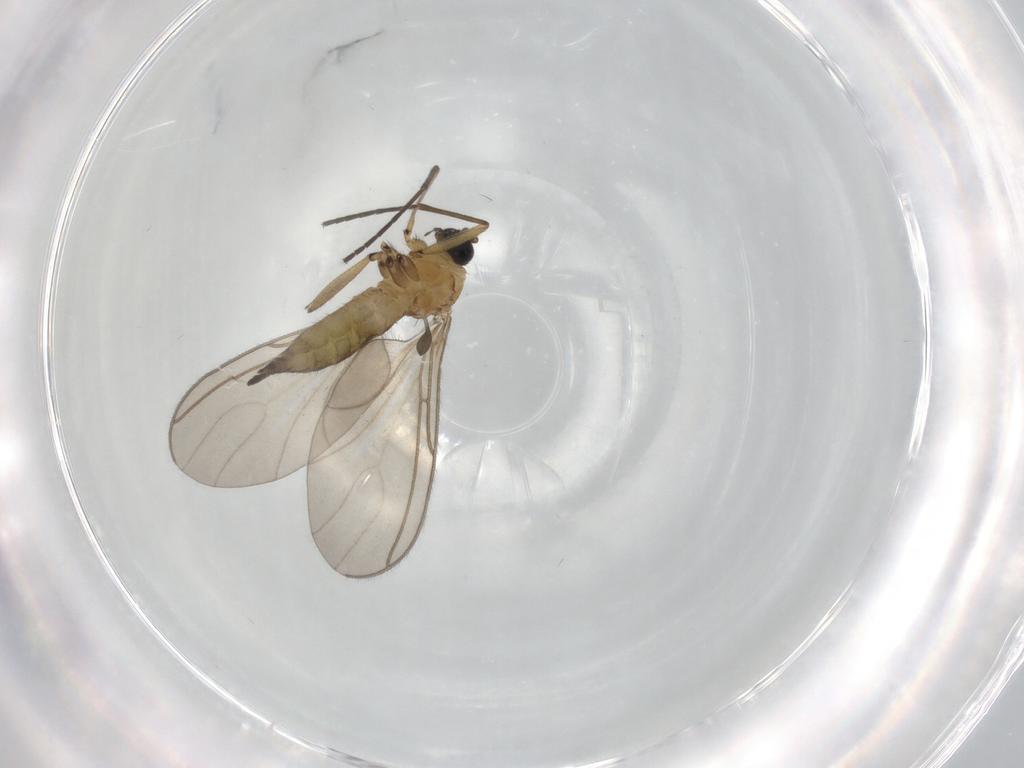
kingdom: Animalia
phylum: Arthropoda
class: Insecta
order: Diptera
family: Sciaridae
